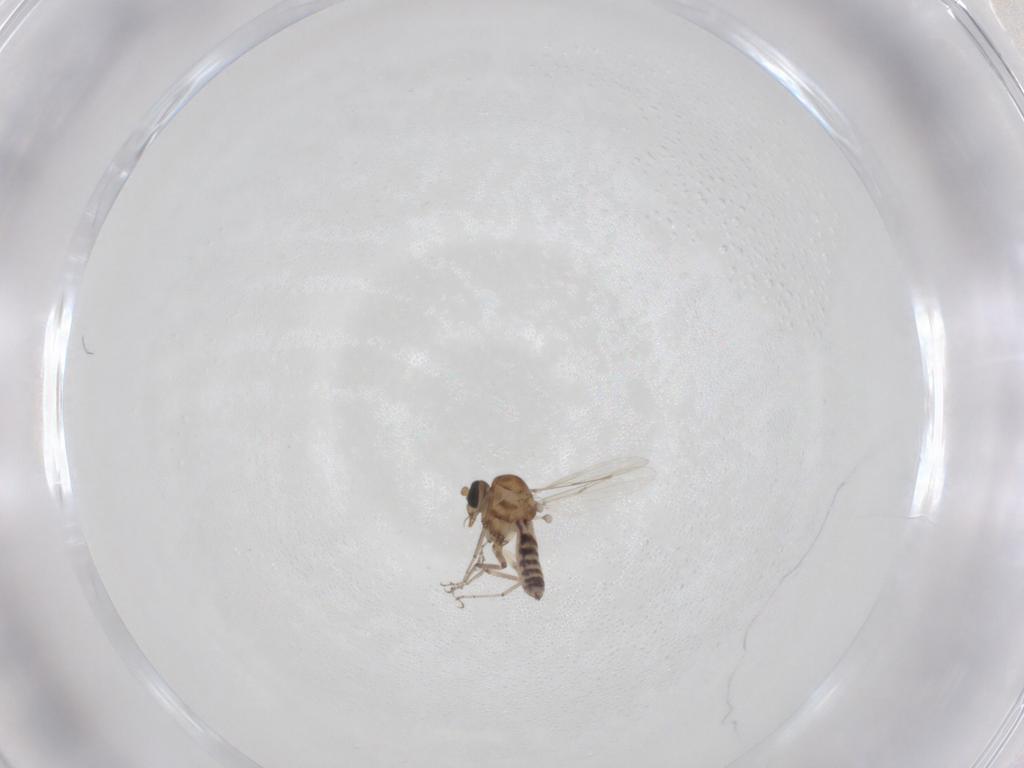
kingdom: Animalia
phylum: Arthropoda
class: Insecta
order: Diptera
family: Ceratopogonidae
